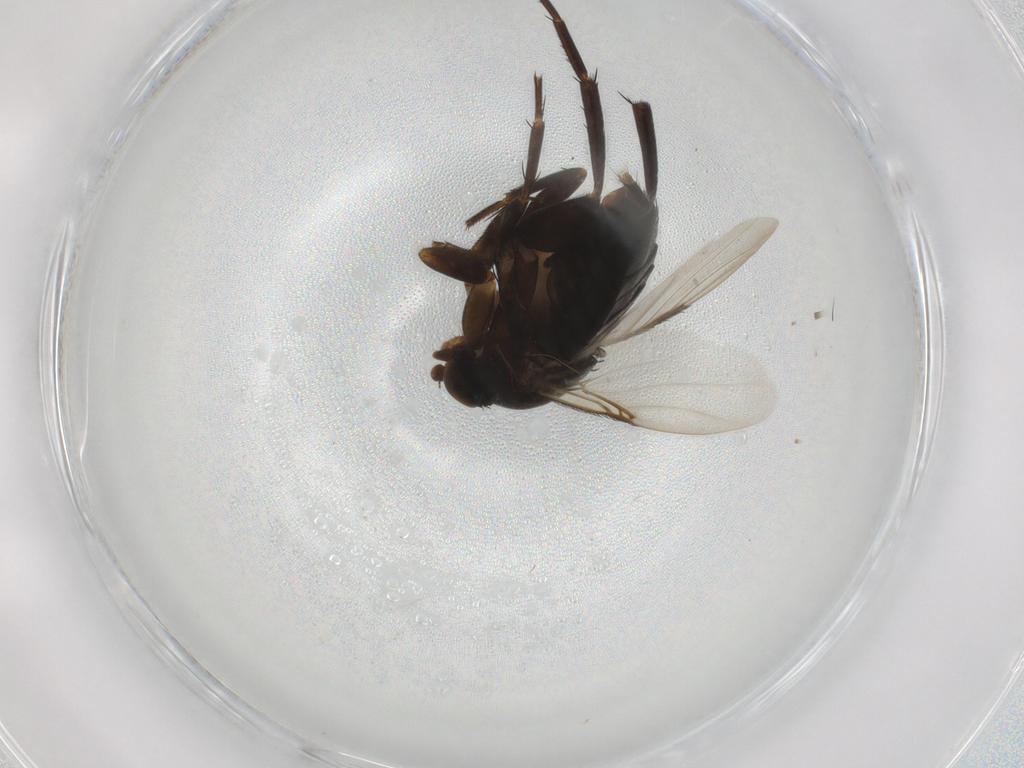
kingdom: Animalia
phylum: Arthropoda
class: Insecta
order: Diptera
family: Phoridae
